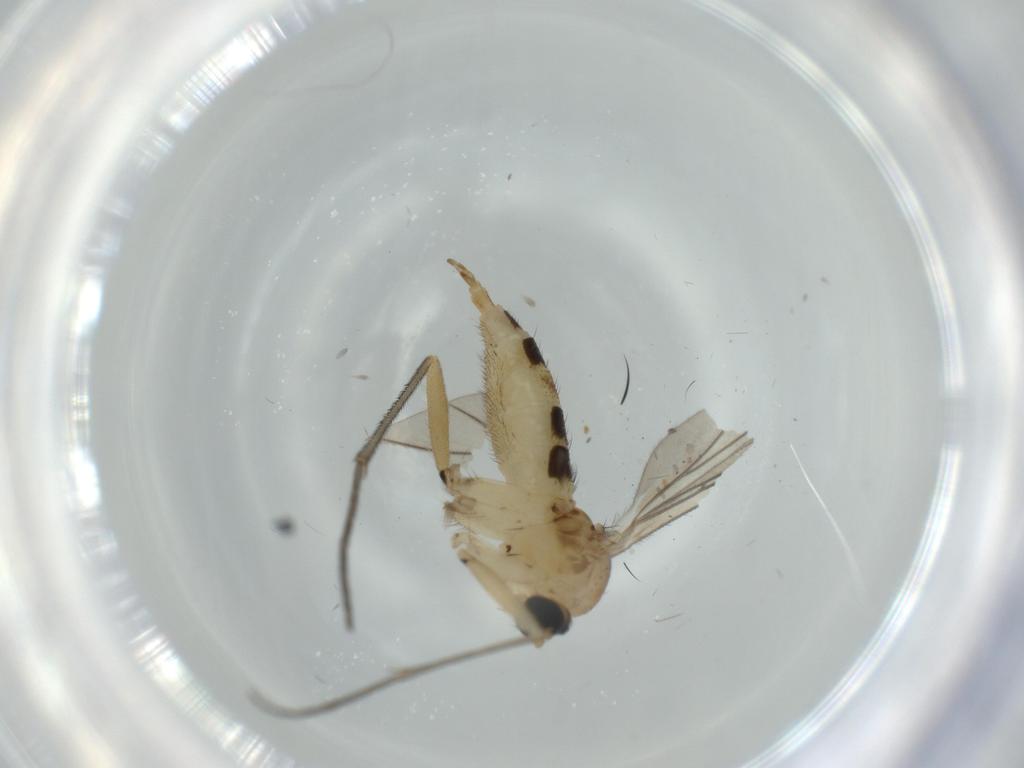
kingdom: Animalia
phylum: Arthropoda
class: Insecta
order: Diptera
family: Sciaridae
